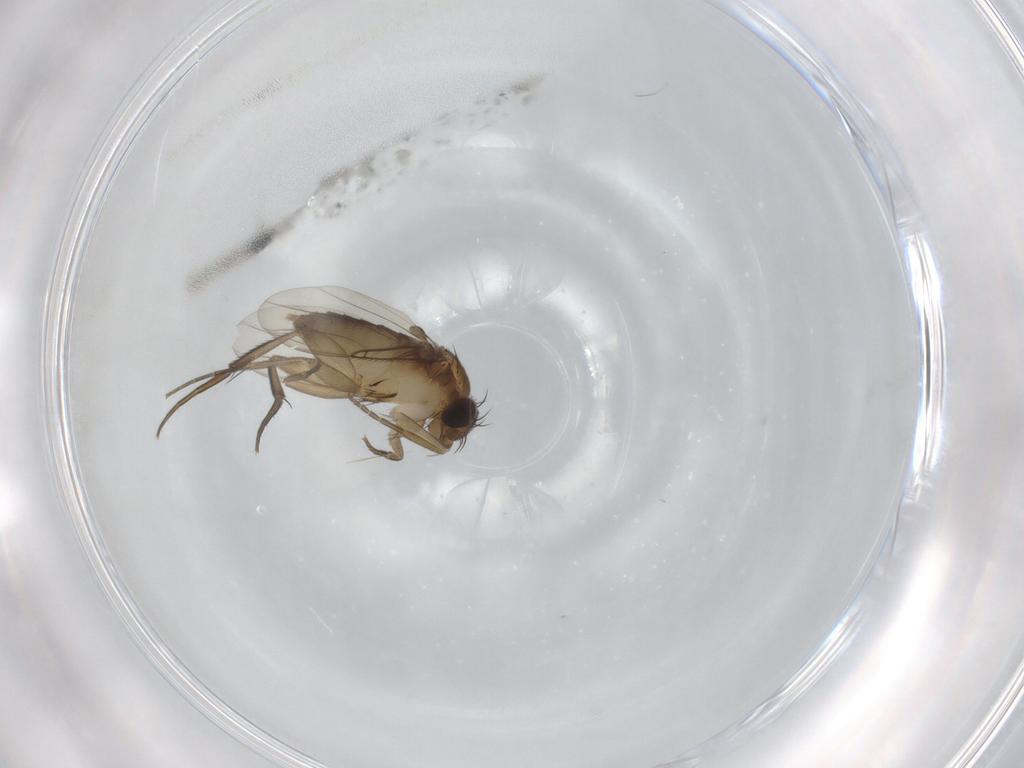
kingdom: Animalia
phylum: Arthropoda
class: Insecta
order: Diptera
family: Phoridae
